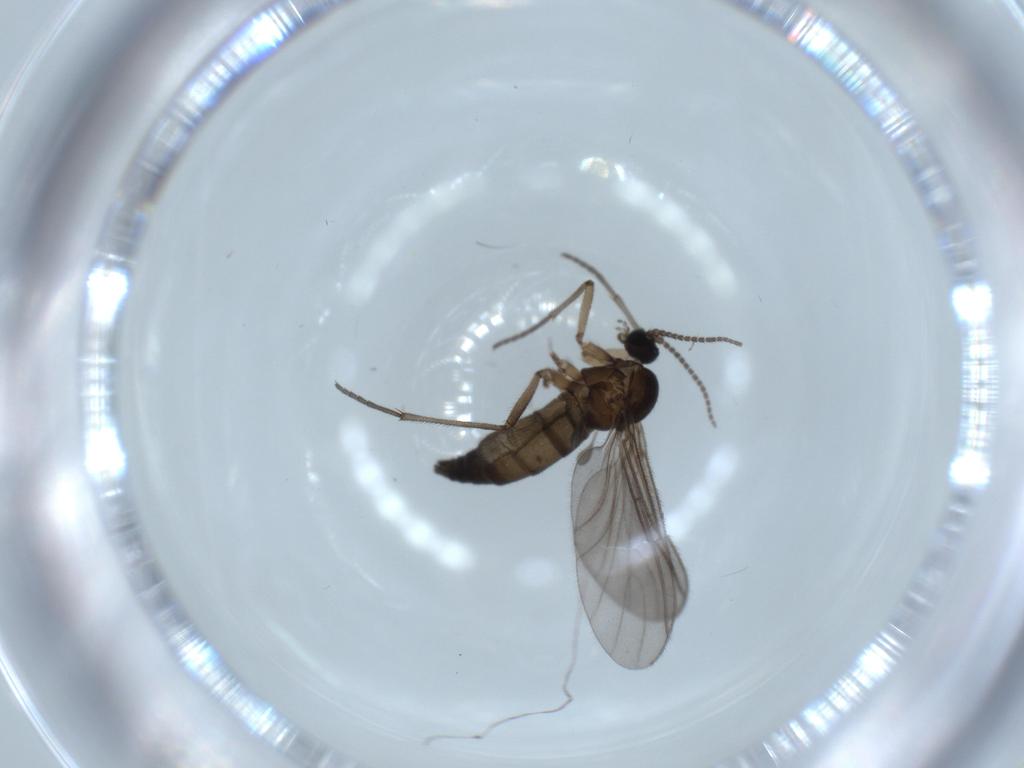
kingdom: Animalia
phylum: Arthropoda
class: Insecta
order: Diptera
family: Sciaridae
